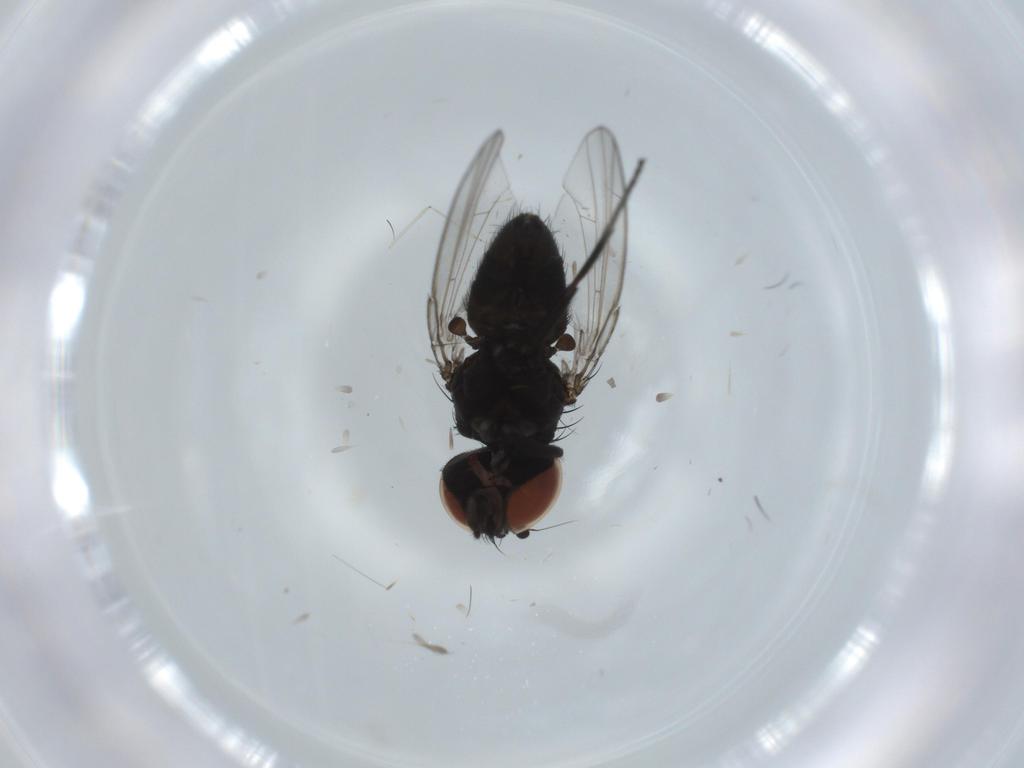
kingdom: Animalia
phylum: Arthropoda
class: Insecta
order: Diptera
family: Milichiidae
